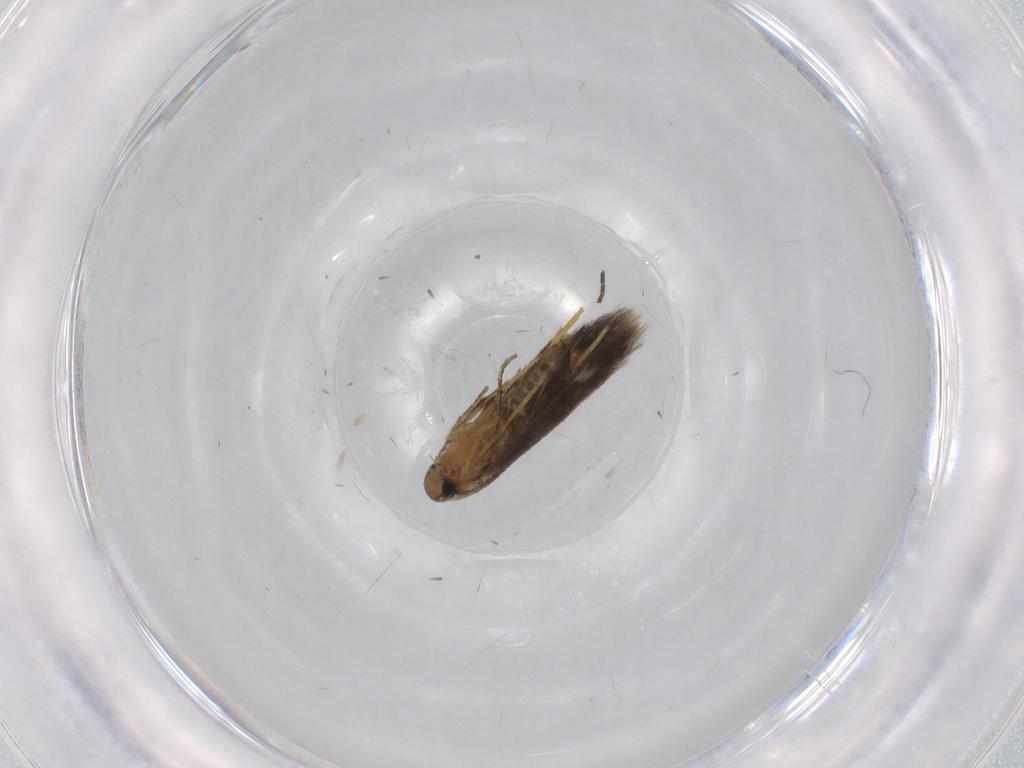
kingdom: Animalia
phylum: Arthropoda
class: Insecta
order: Lepidoptera
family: Heliozelidae
